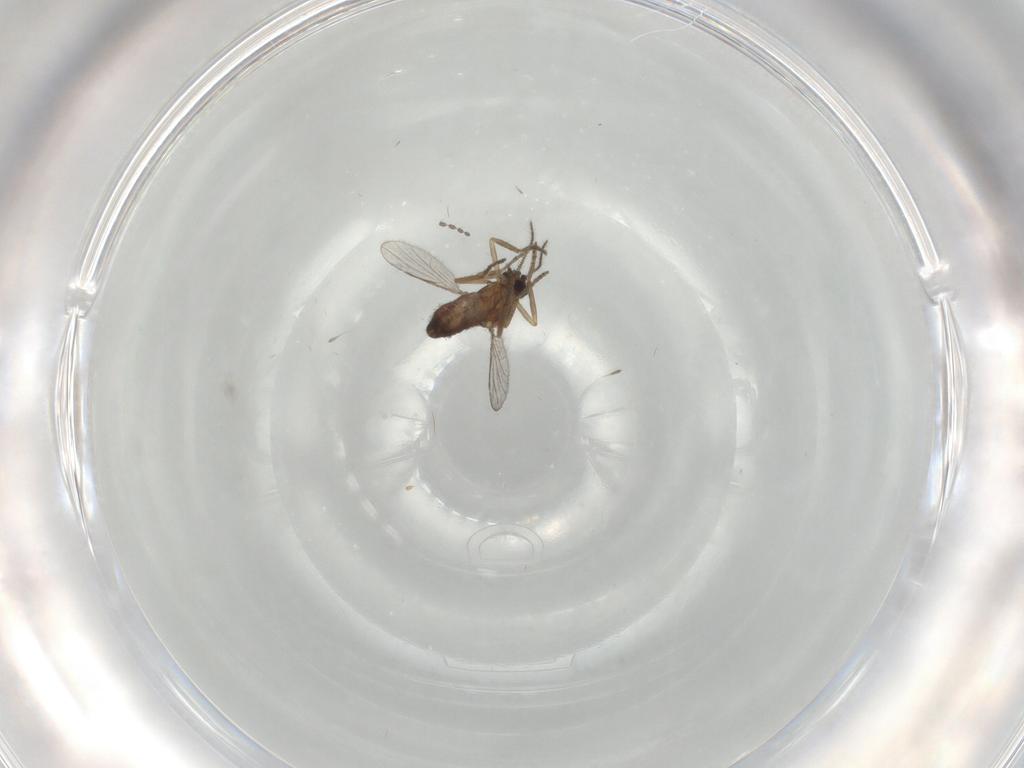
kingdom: Animalia
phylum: Arthropoda
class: Insecta
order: Diptera
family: Ceratopogonidae
